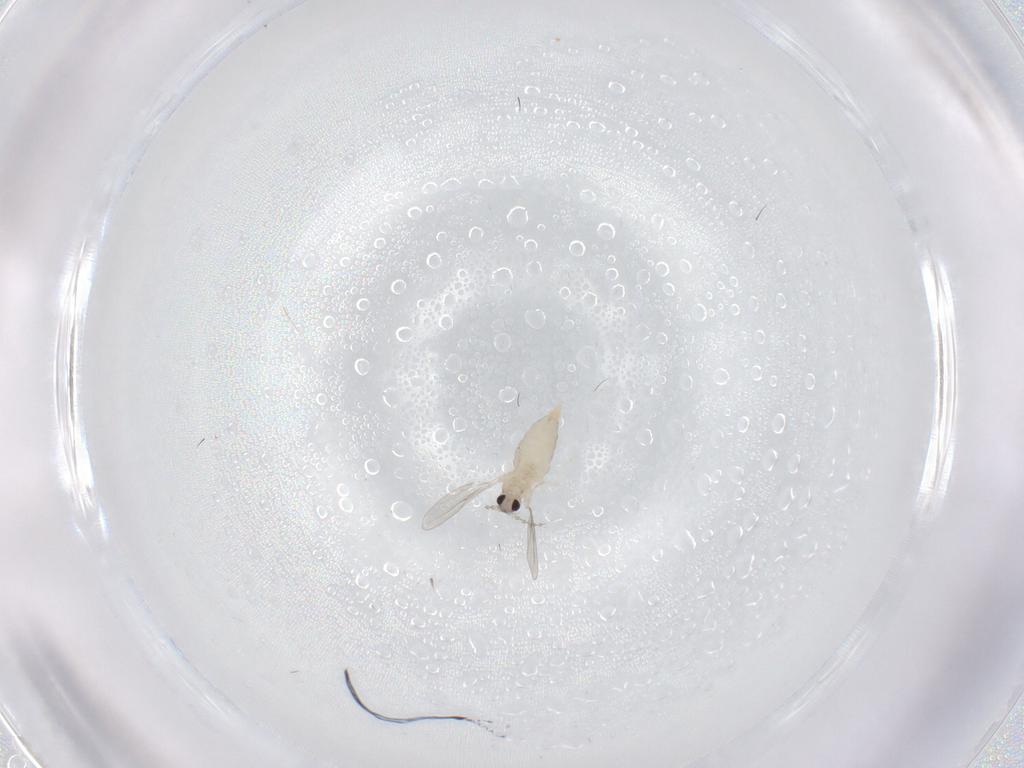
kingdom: Animalia
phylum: Arthropoda
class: Insecta
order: Diptera
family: Cecidomyiidae
